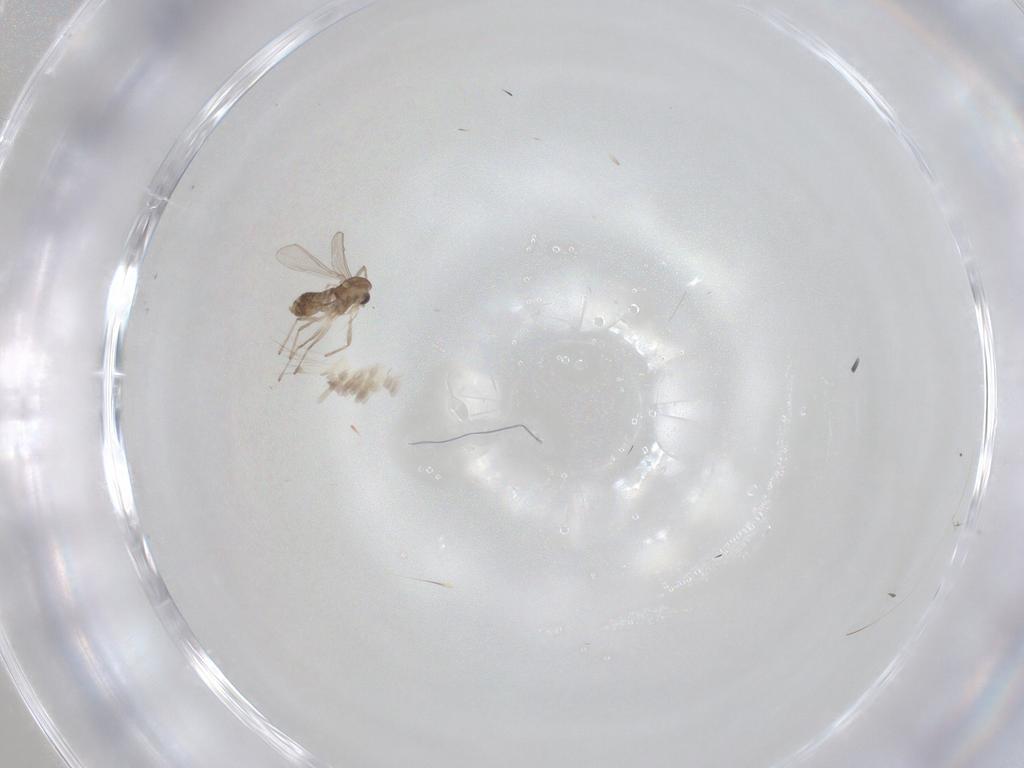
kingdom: Animalia
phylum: Arthropoda
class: Insecta
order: Diptera
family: Chironomidae
